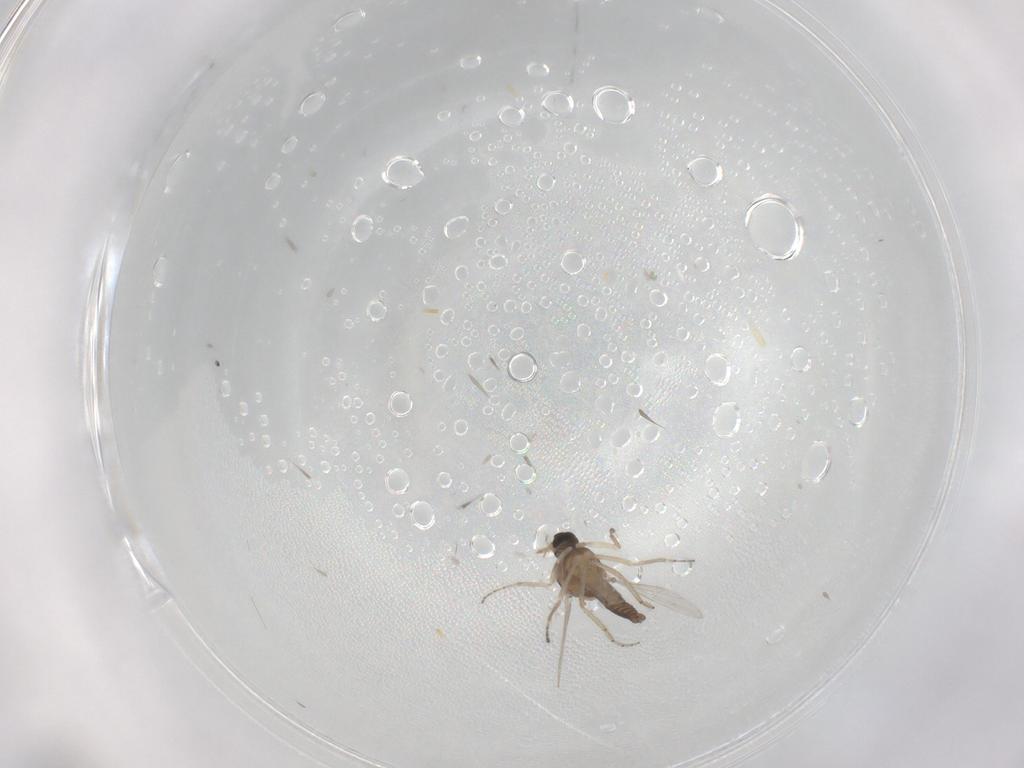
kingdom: Animalia
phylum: Arthropoda
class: Insecta
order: Diptera
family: Ceratopogonidae
